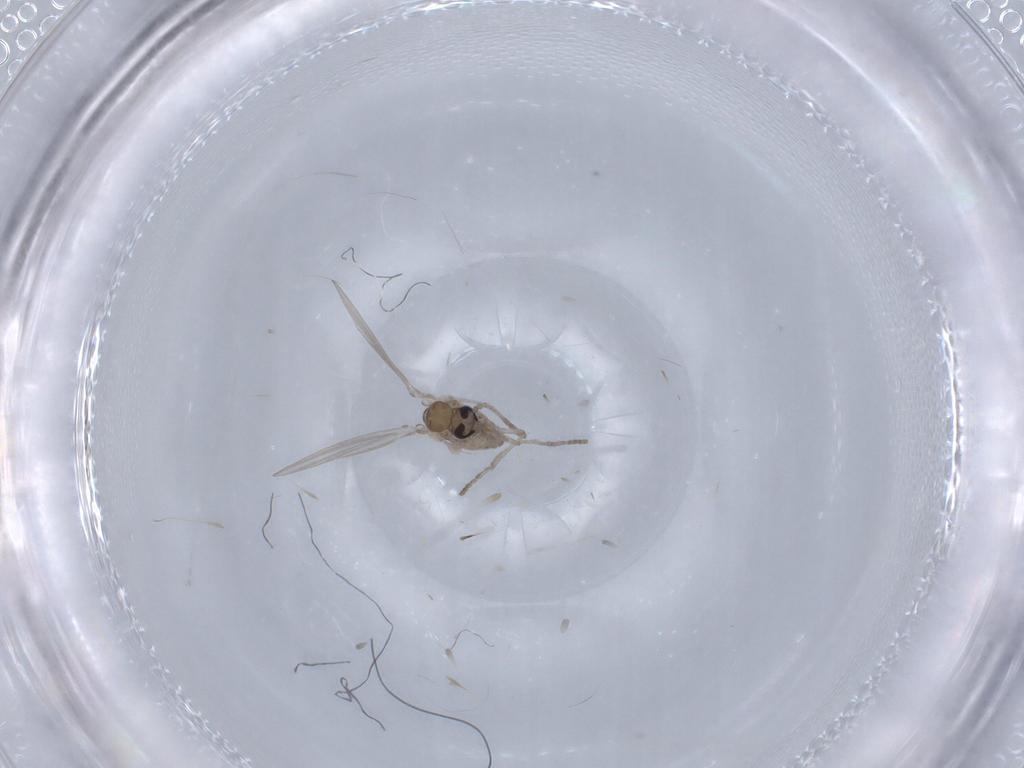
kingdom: Animalia
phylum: Arthropoda
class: Insecta
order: Diptera
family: Psychodidae
